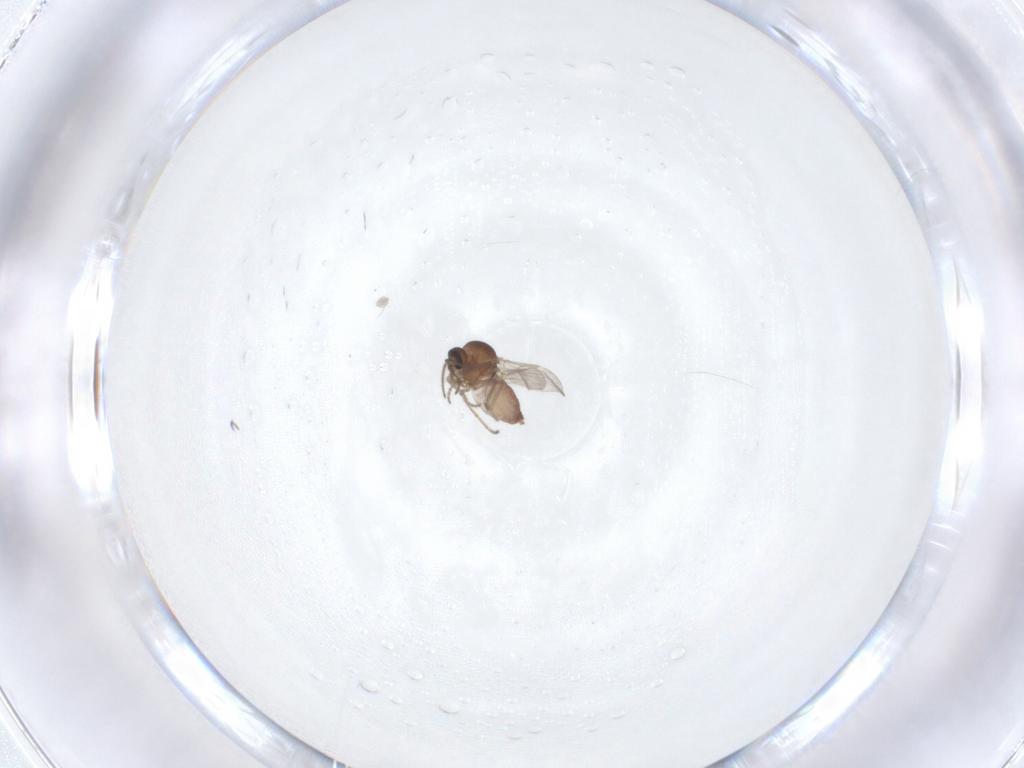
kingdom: Animalia
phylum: Arthropoda
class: Insecta
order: Diptera
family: Ceratopogonidae
